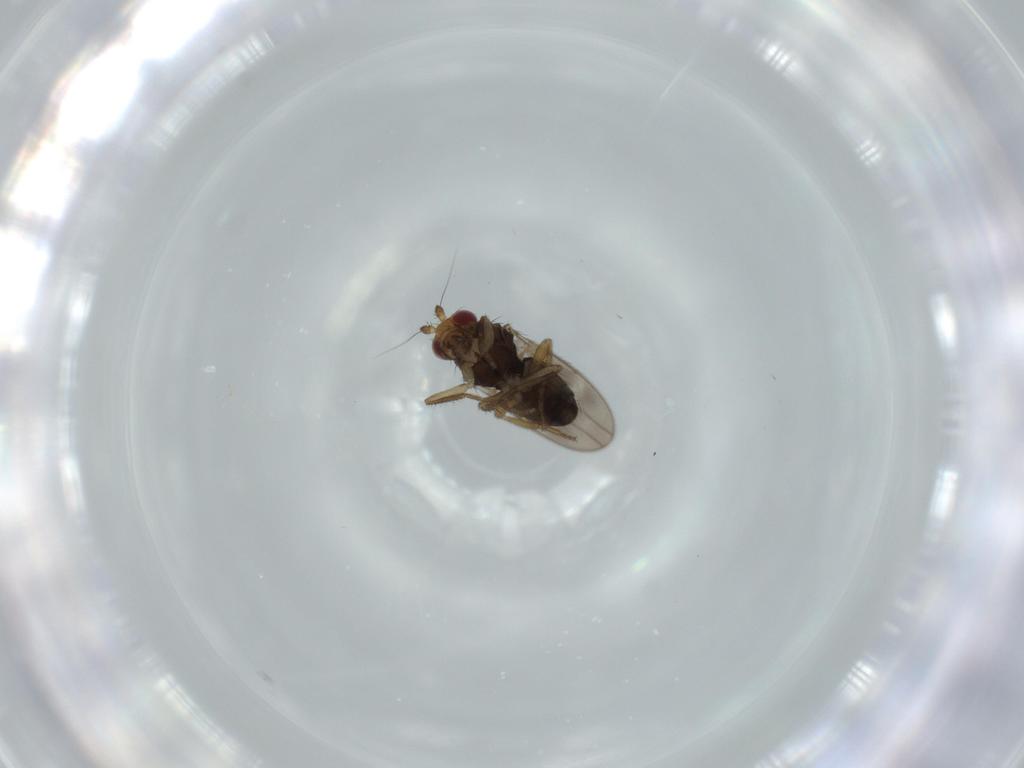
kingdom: Animalia
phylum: Arthropoda
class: Insecta
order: Diptera
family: Sphaeroceridae
